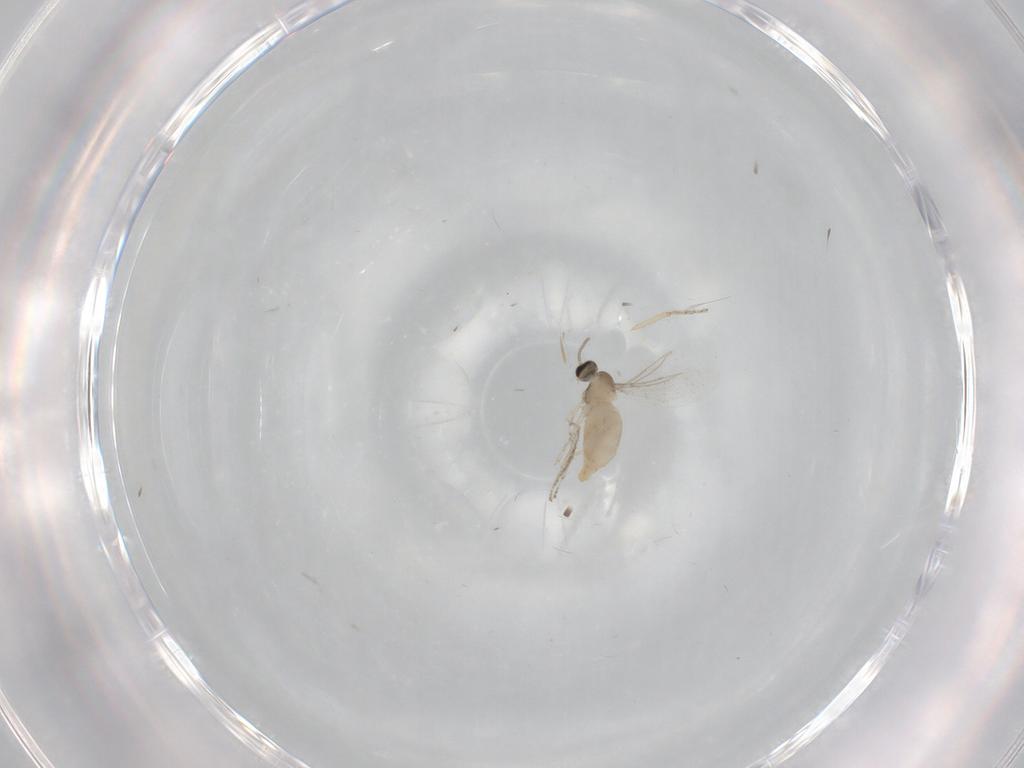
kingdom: Animalia
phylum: Arthropoda
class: Insecta
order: Diptera
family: Cecidomyiidae
